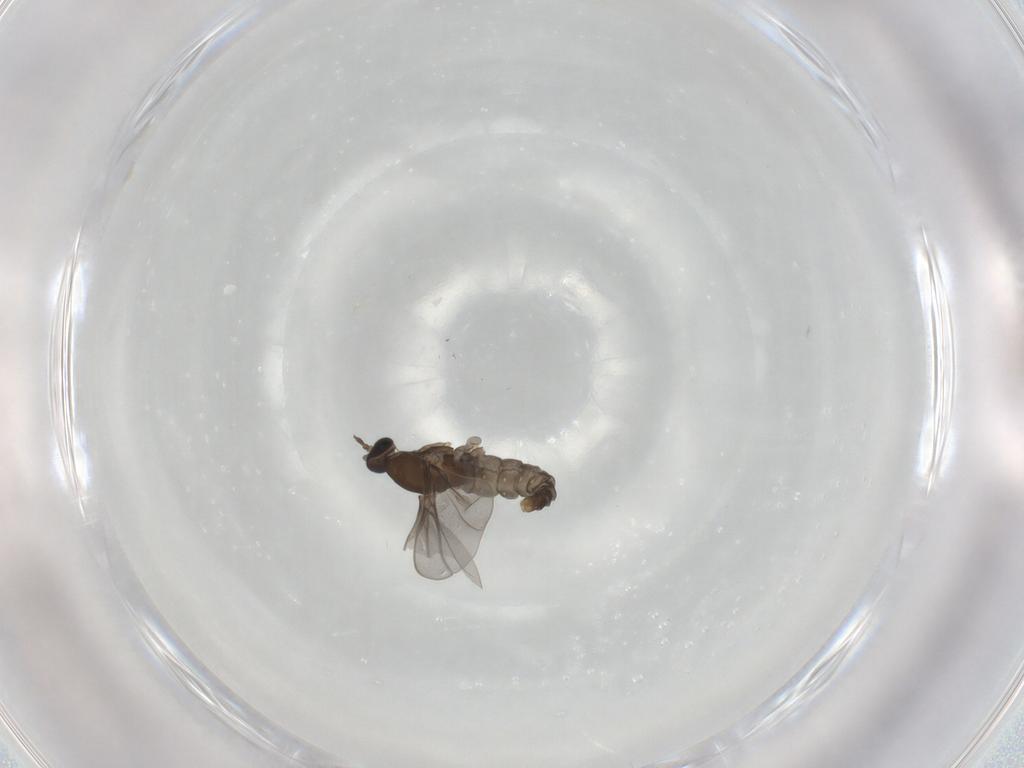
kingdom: Animalia
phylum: Arthropoda
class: Insecta
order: Diptera
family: Cecidomyiidae
